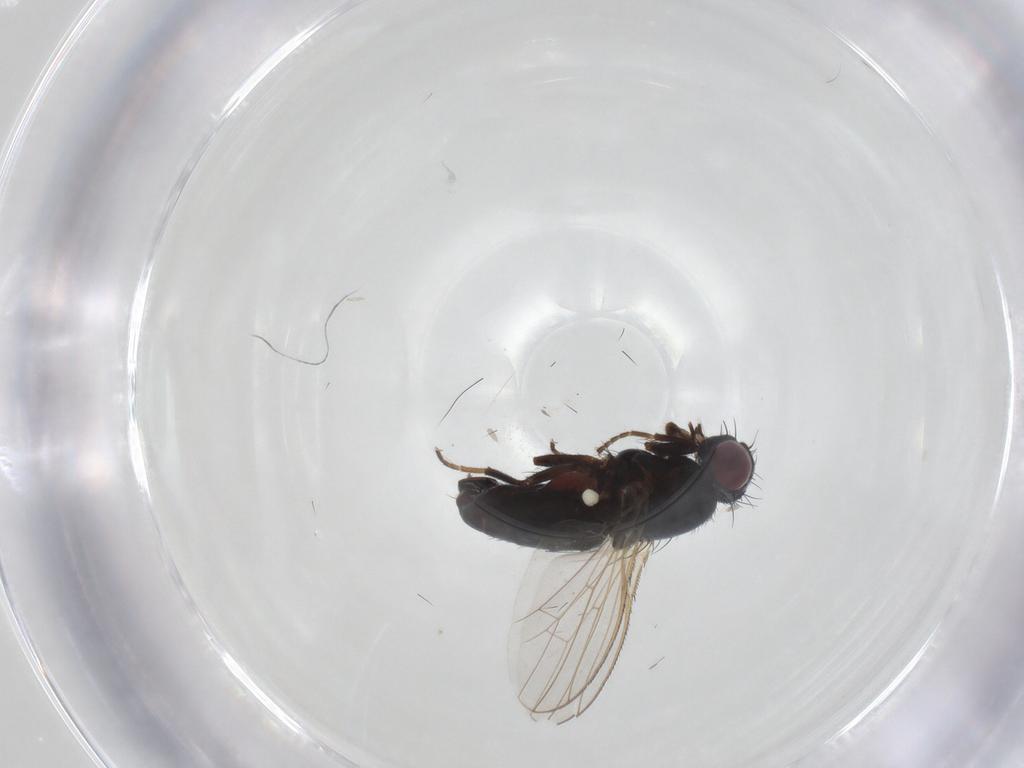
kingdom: Animalia
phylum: Arthropoda
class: Insecta
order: Diptera
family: Carnidae
